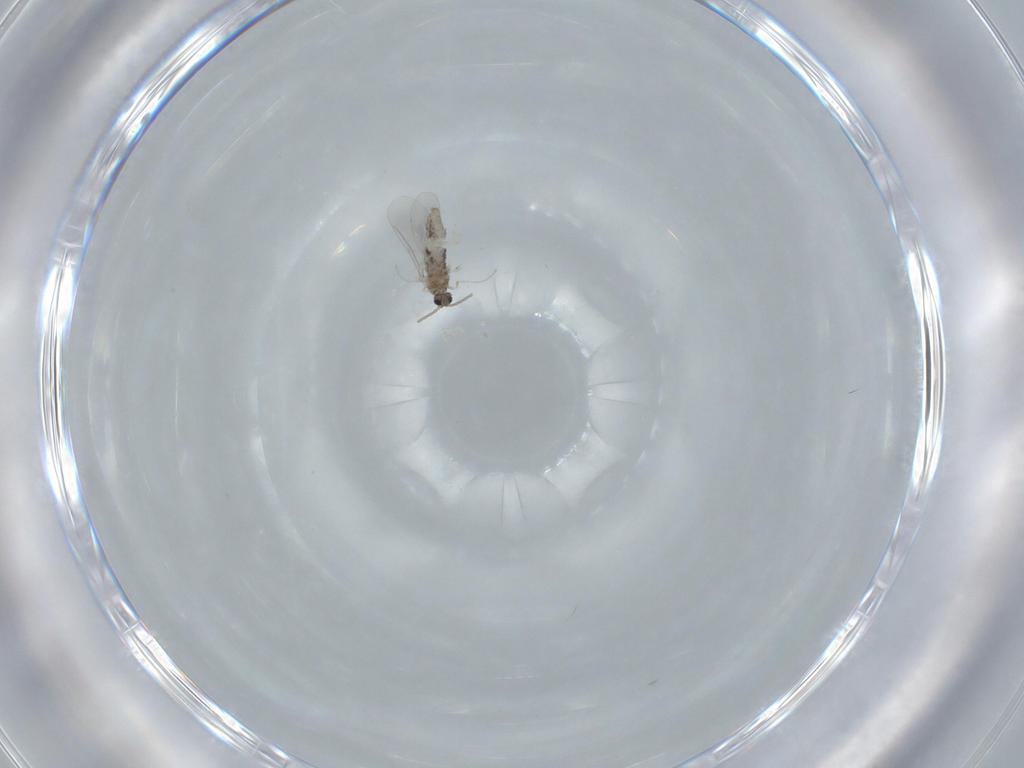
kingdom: Animalia
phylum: Arthropoda
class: Insecta
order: Diptera
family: Cecidomyiidae
